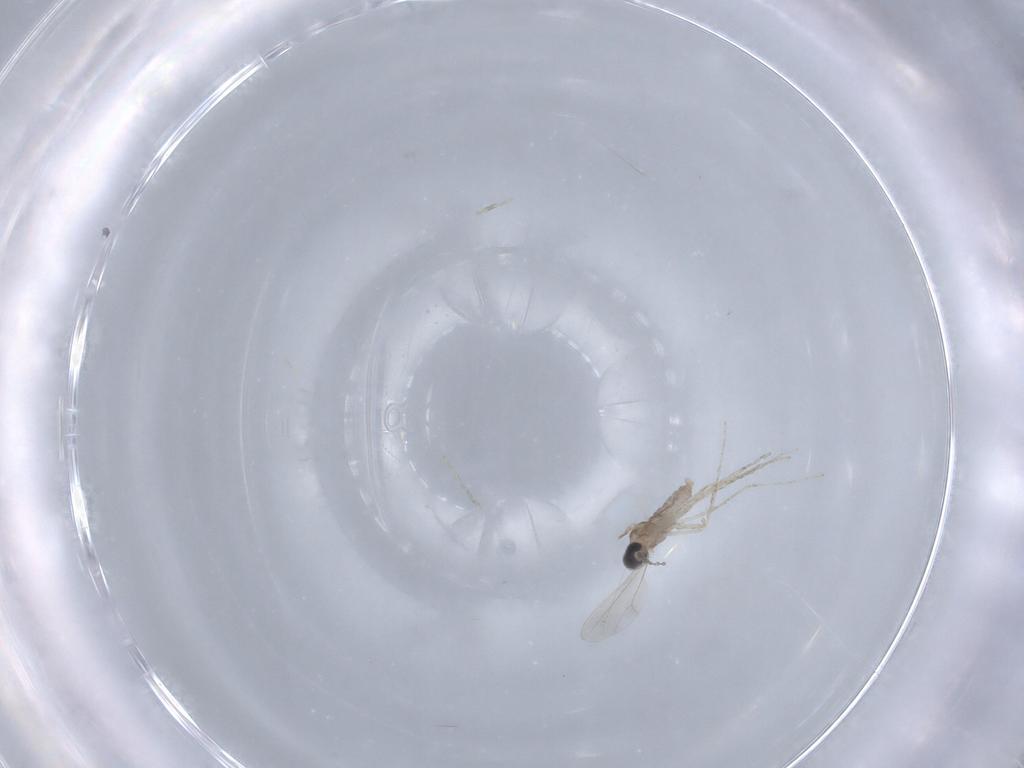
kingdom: Animalia
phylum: Arthropoda
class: Insecta
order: Diptera
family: Cecidomyiidae
